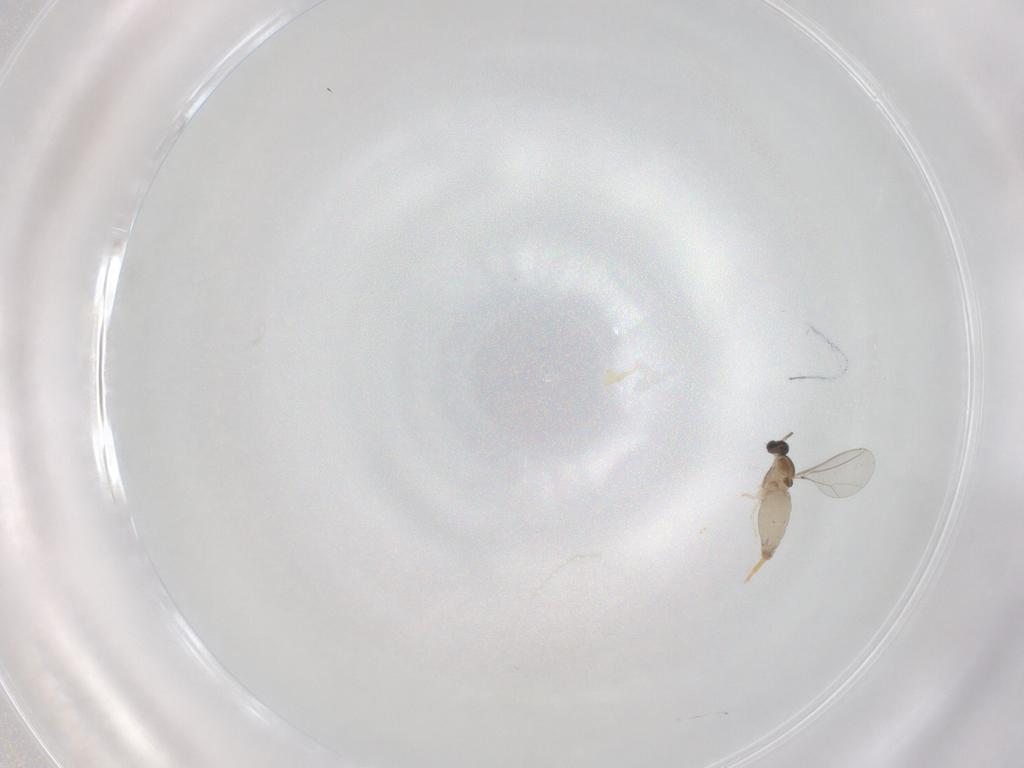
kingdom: Animalia
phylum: Arthropoda
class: Insecta
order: Diptera
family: Cecidomyiidae
